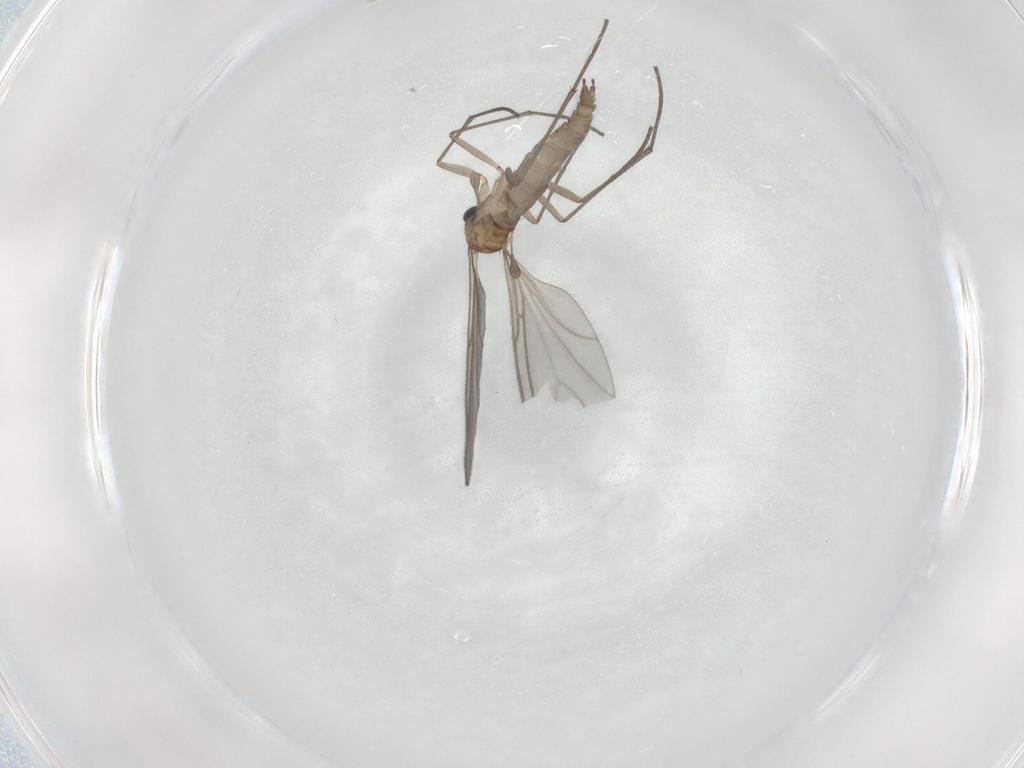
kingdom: Animalia
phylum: Arthropoda
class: Insecta
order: Diptera
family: Sciaridae
